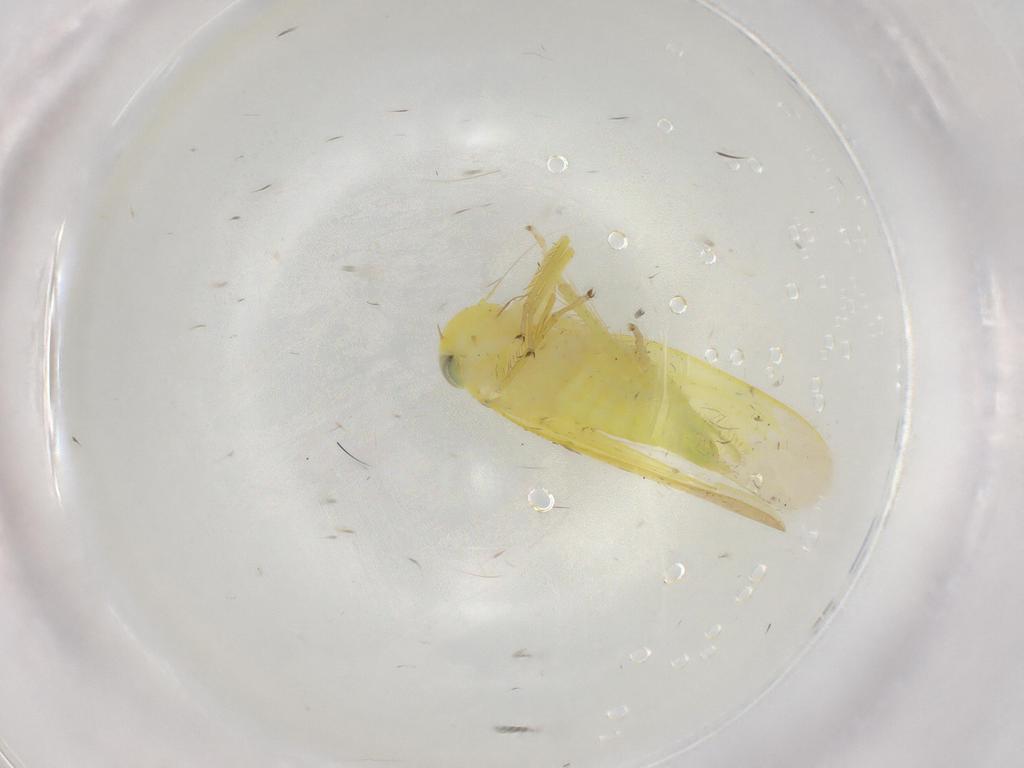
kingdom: Animalia
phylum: Arthropoda
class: Insecta
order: Hemiptera
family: Cicadellidae
